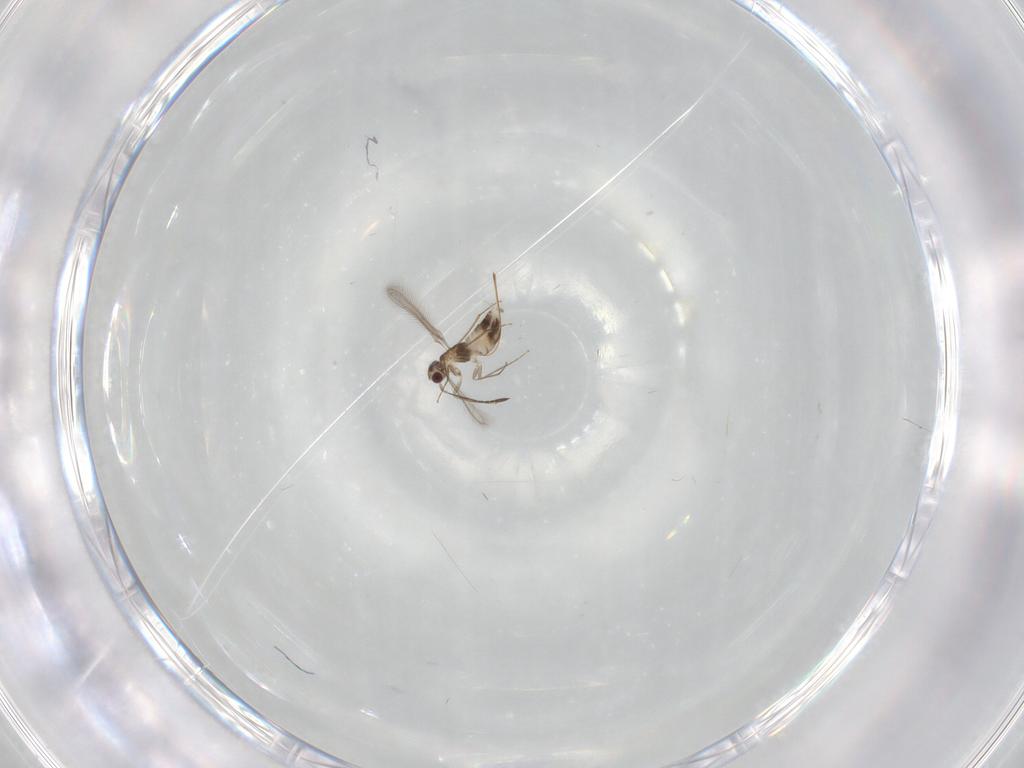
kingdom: Animalia
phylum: Arthropoda
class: Insecta
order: Hymenoptera
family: Mymaridae
